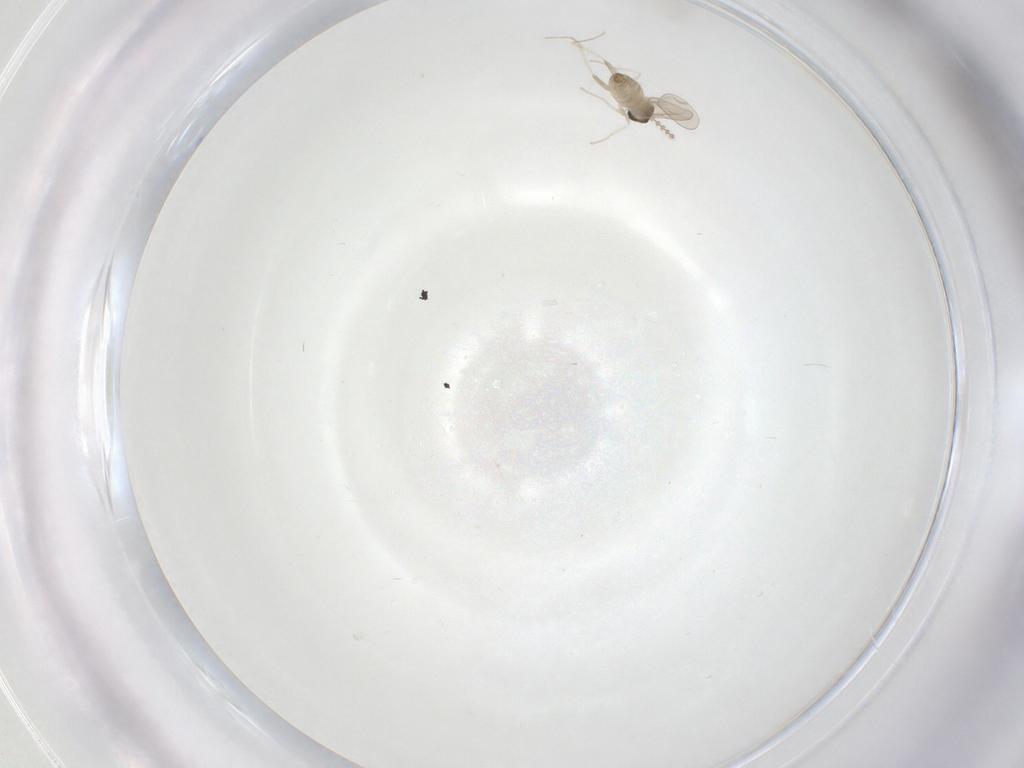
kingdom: Animalia
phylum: Arthropoda
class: Insecta
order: Diptera
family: Cecidomyiidae
